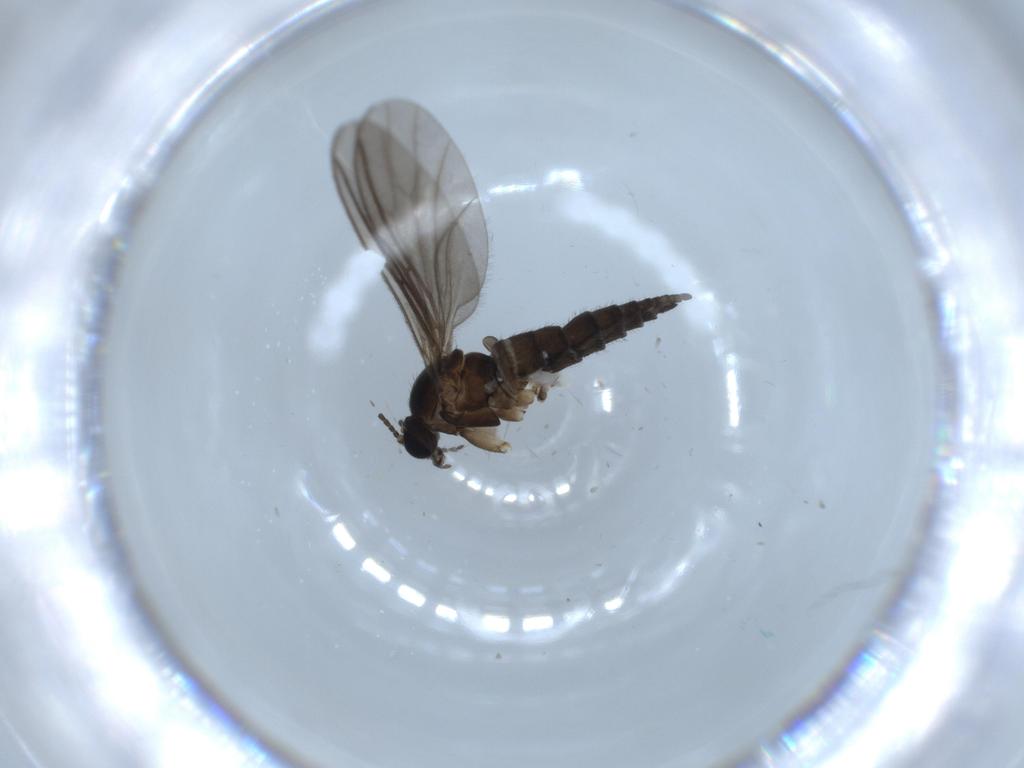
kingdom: Animalia
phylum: Arthropoda
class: Insecta
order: Diptera
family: Sciaridae
